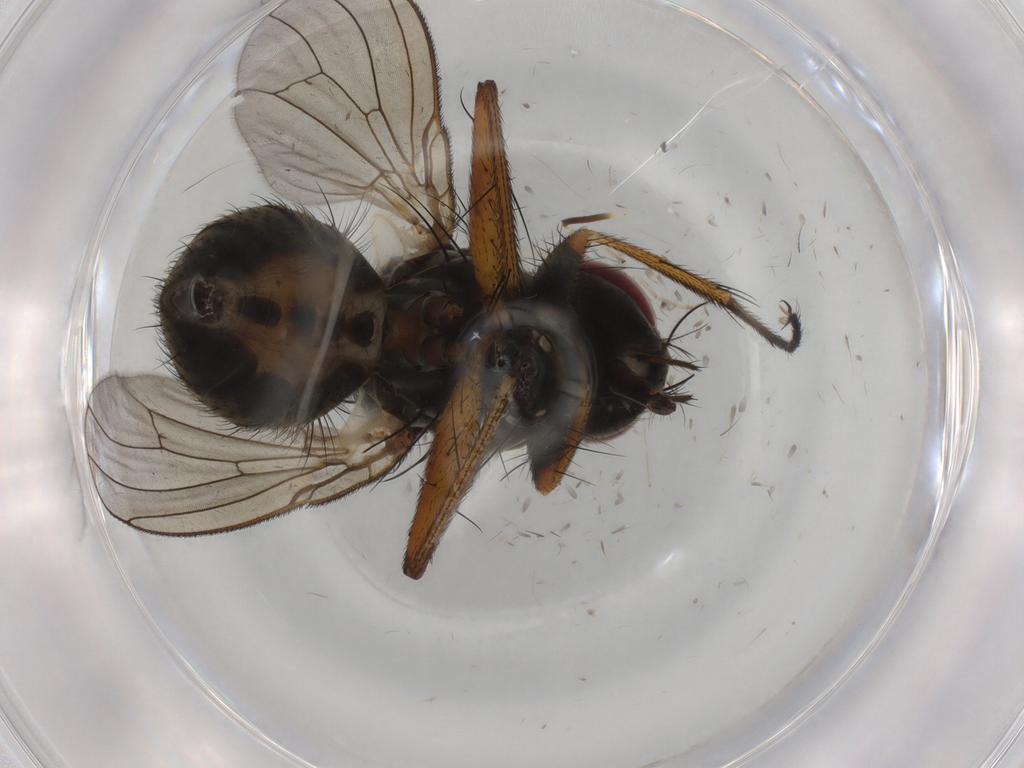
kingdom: Animalia
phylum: Arthropoda
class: Insecta
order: Diptera
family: Muscidae
